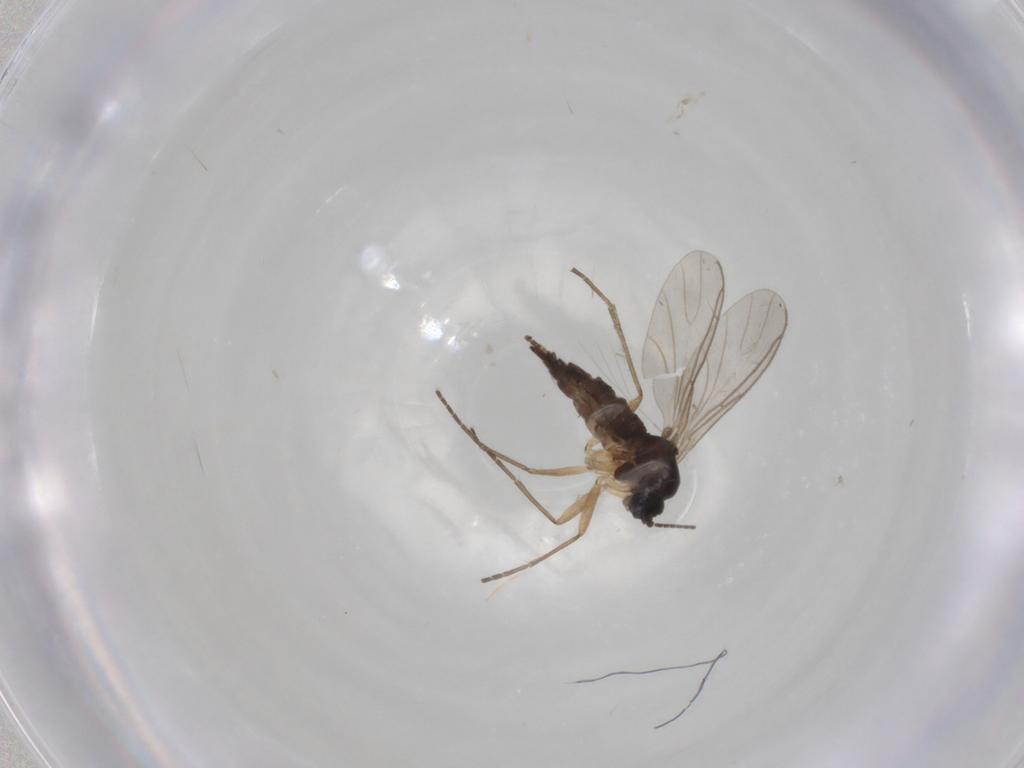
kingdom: Animalia
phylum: Arthropoda
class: Insecta
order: Diptera
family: Sciaridae
